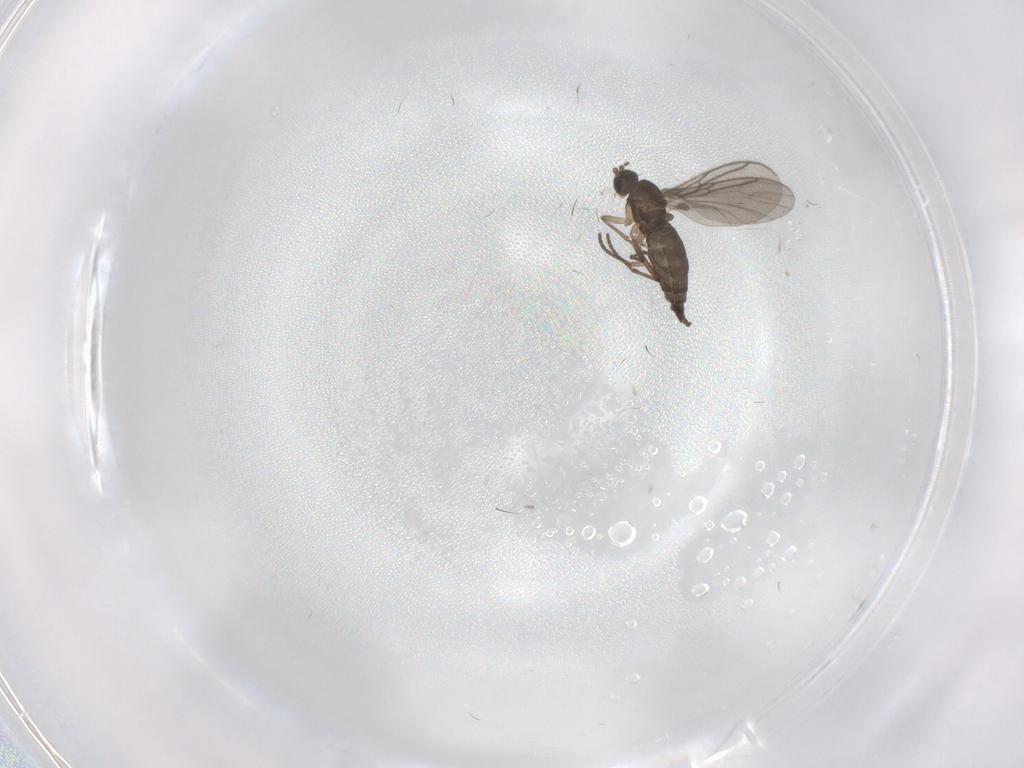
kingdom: Animalia
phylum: Arthropoda
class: Insecta
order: Diptera
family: Sciaridae
